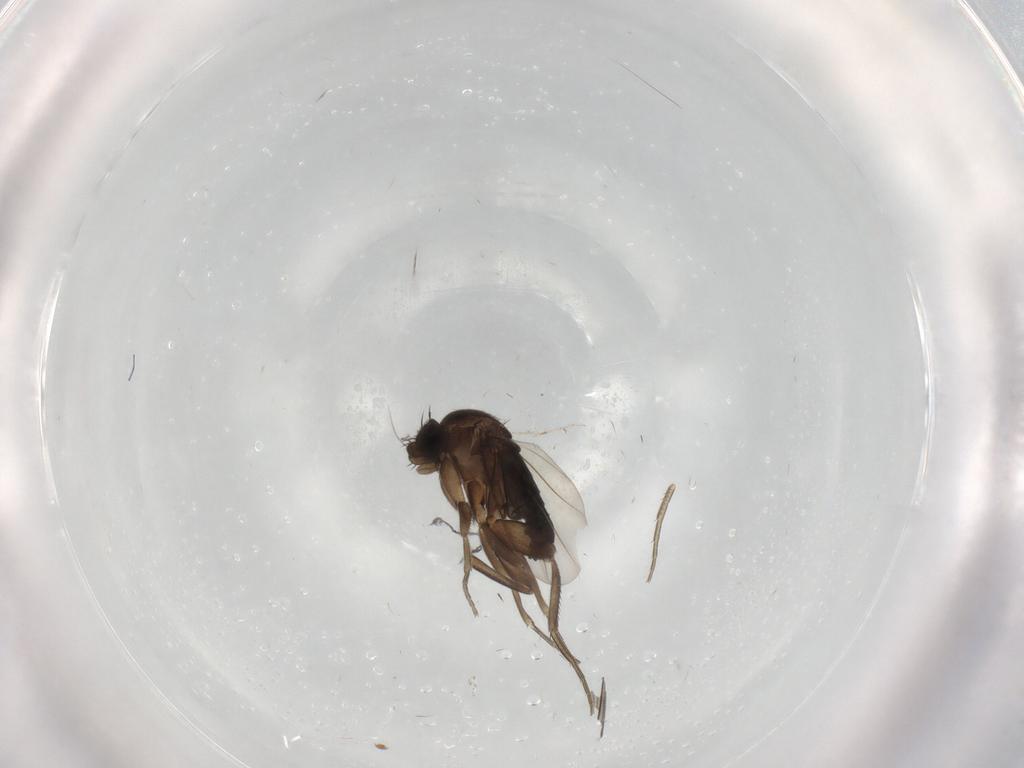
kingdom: Animalia
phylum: Arthropoda
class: Insecta
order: Diptera
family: Phoridae
